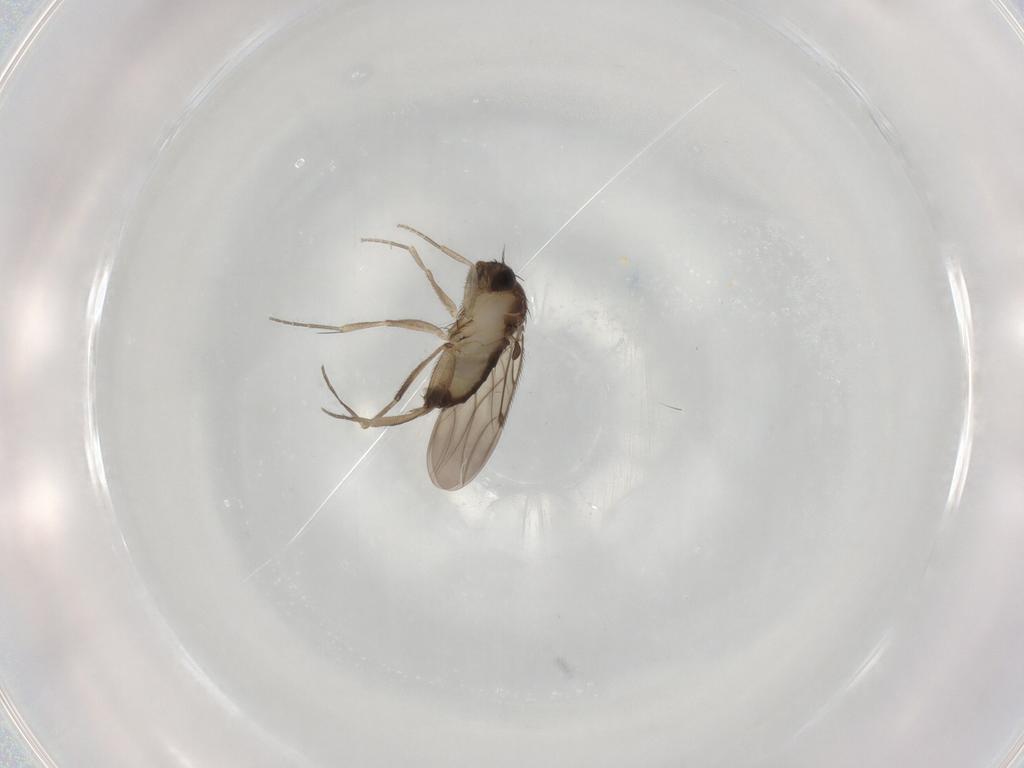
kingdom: Animalia
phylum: Arthropoda
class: Insecta
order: Diptera
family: Phoridae
